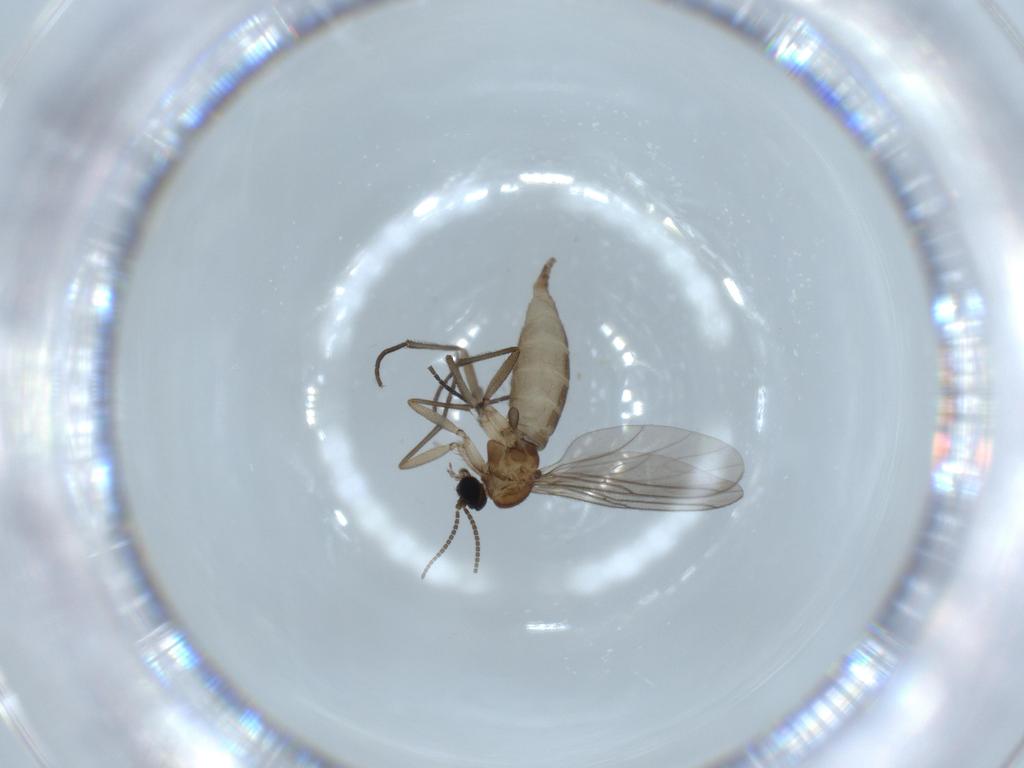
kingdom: Animalia
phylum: Arthropoda
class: Insecta
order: Diptera
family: Sciaridae
